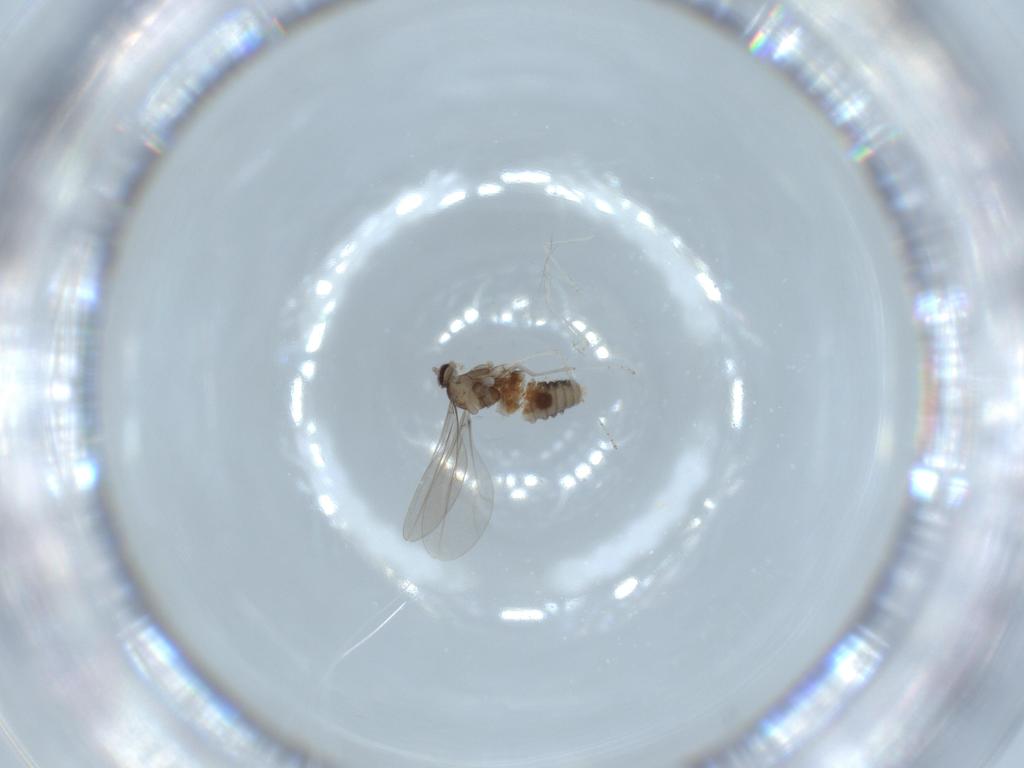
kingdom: Animalia
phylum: Arthropoda
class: Insecta
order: Diptera
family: Cecidomyiidae
